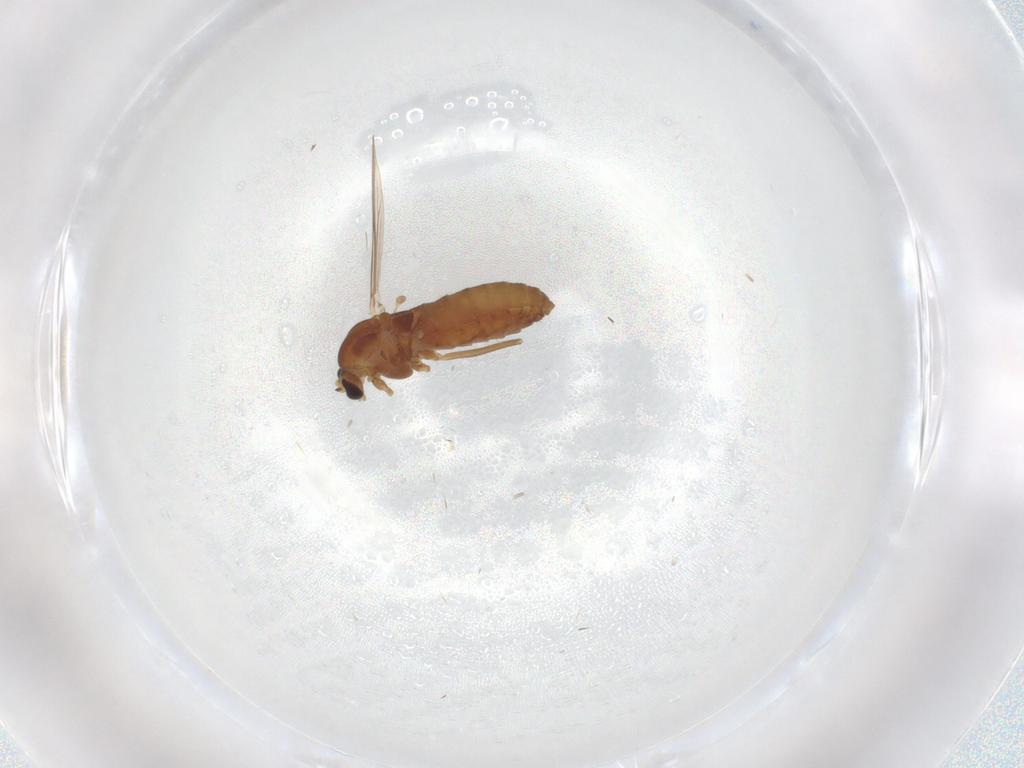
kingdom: Animalia
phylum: Arthropoda
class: Insecta
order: Diptera
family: Chironomidae
